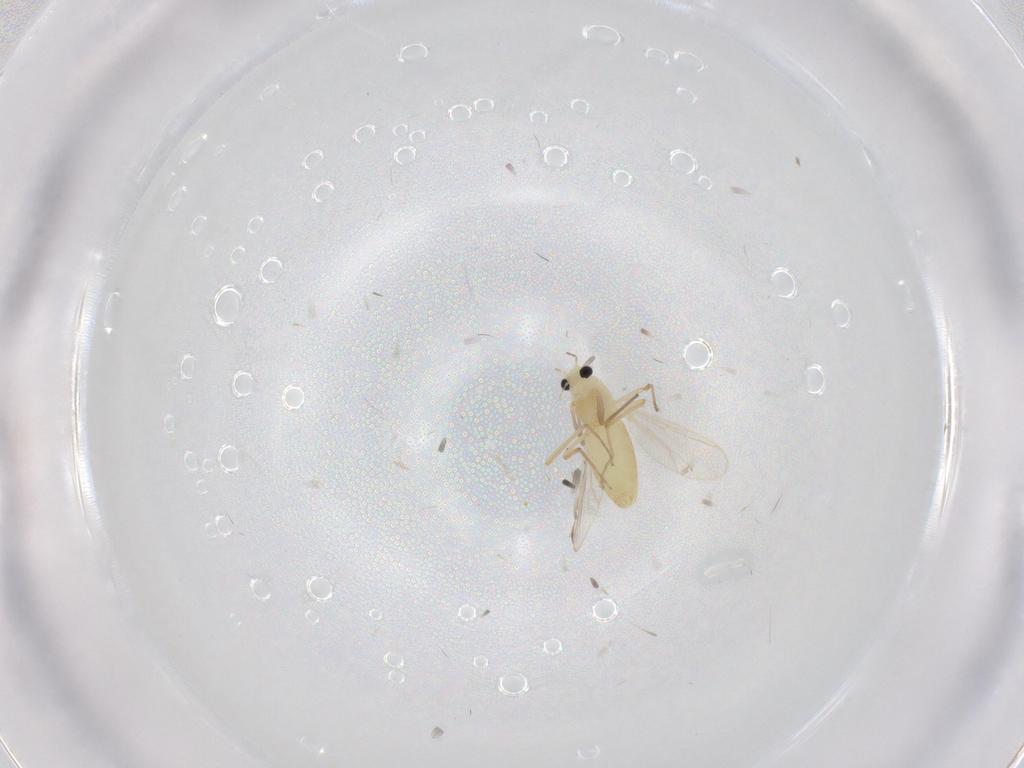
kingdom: Animalia
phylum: Arthropoda
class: Insecta
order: Diptera
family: Chironomidae
